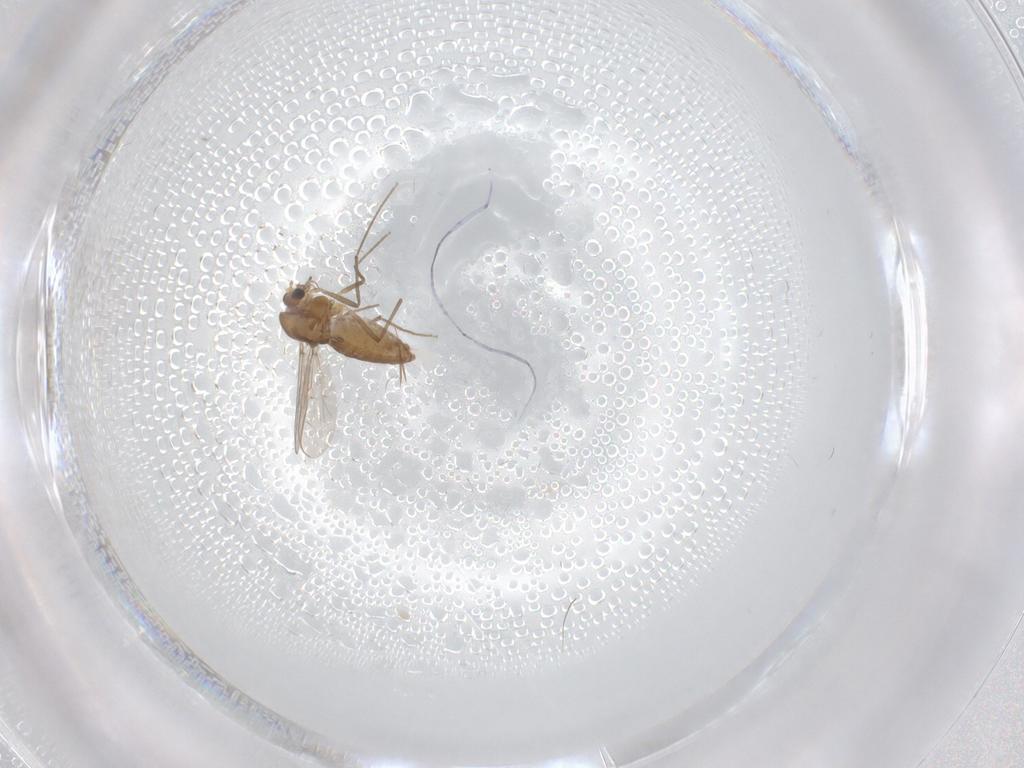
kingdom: Animalia
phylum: Arthropoda
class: Insecta
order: Diptera
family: Chironomidae
